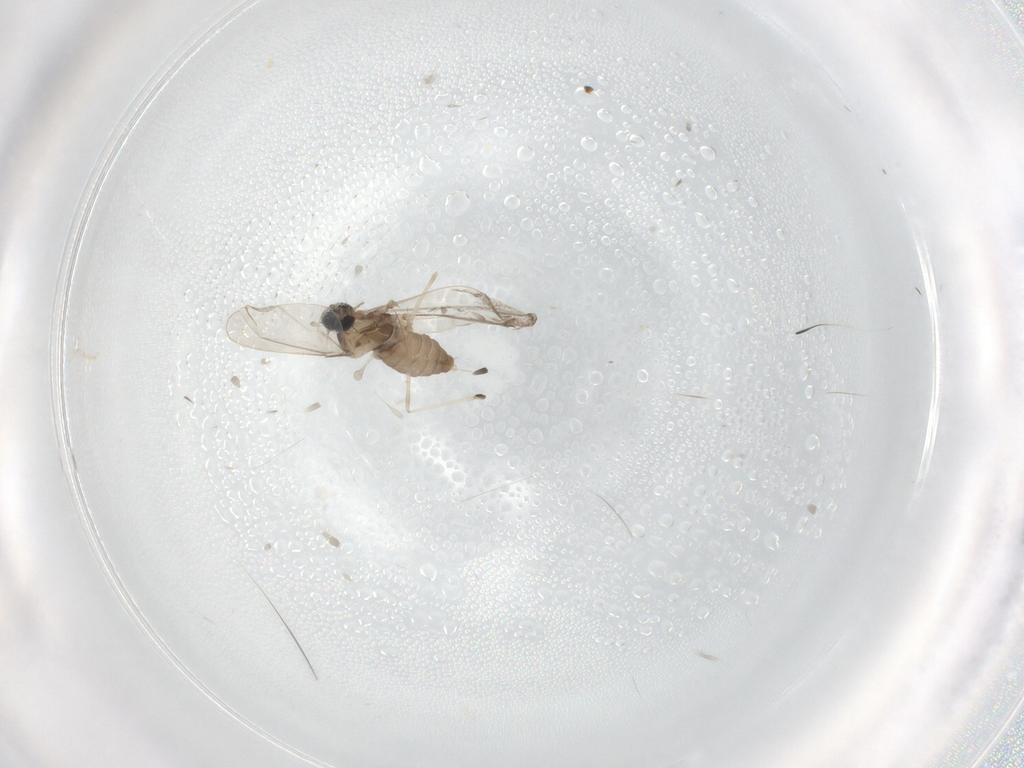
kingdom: Animalia
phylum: Arthropoda
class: Insecta
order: Diptera
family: Cecidomyiidae
